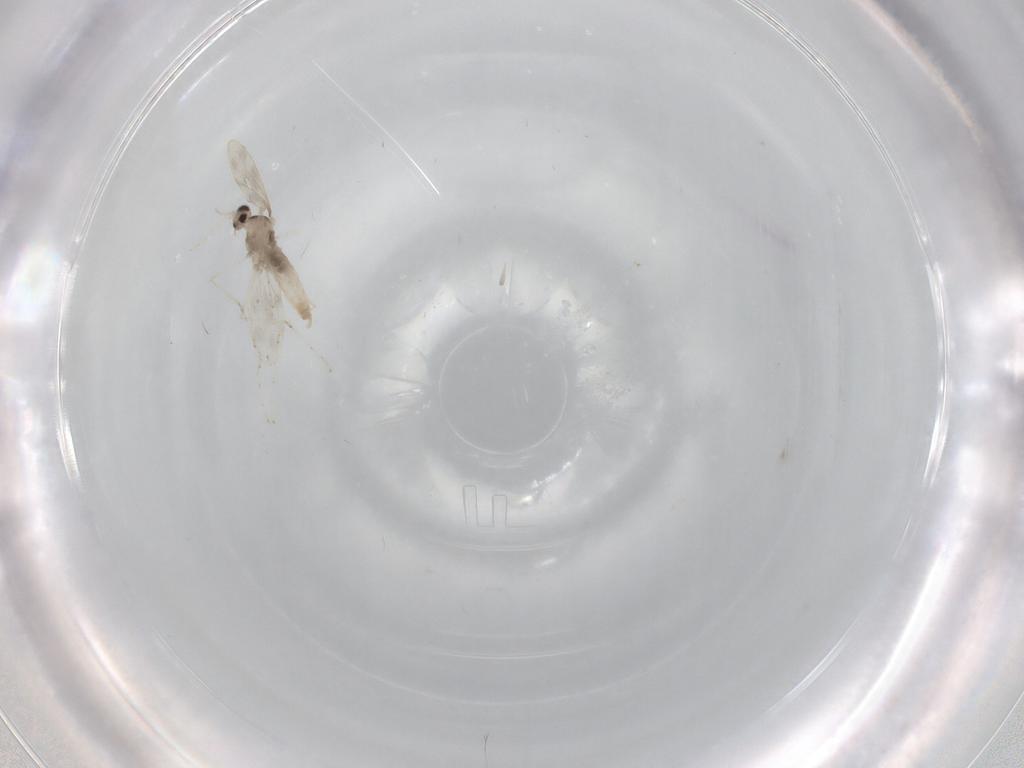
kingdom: Animalia
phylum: Arthropoda
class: Insecta
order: Diptera
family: Cecidomyiidae
